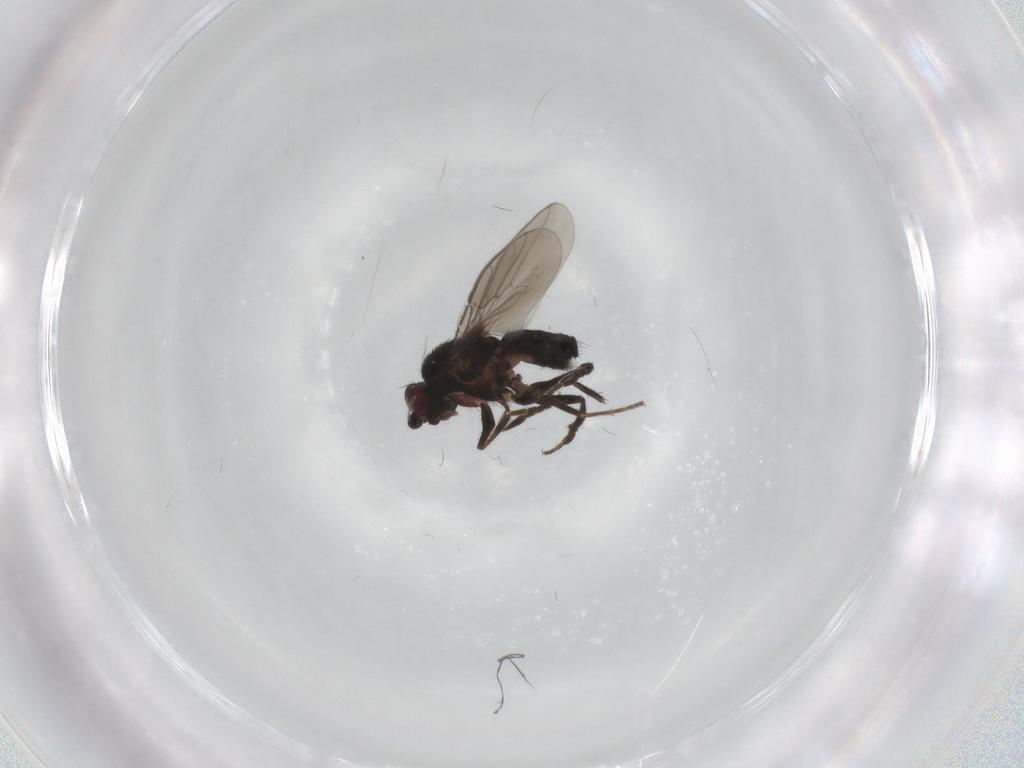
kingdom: Animalia
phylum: Arthropoda
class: Insecta
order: Diptera
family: Sphaeroceridae
